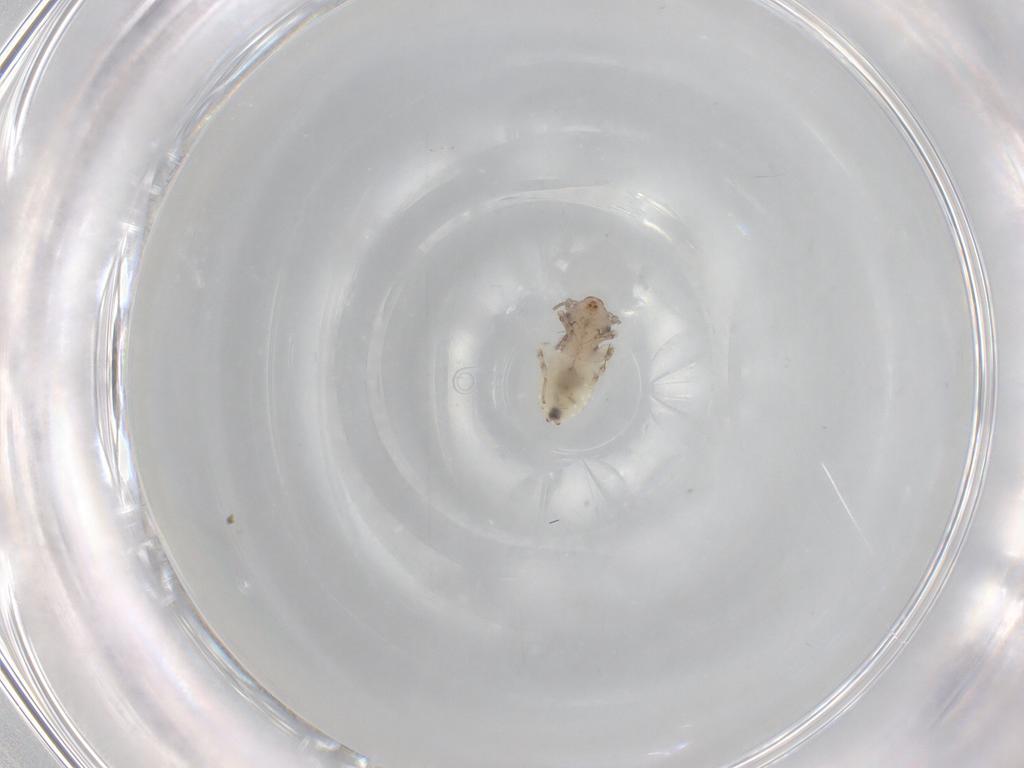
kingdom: Animalia
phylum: Arthropoda
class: Insecta
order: Psocodea
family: Lepidopsocidae
